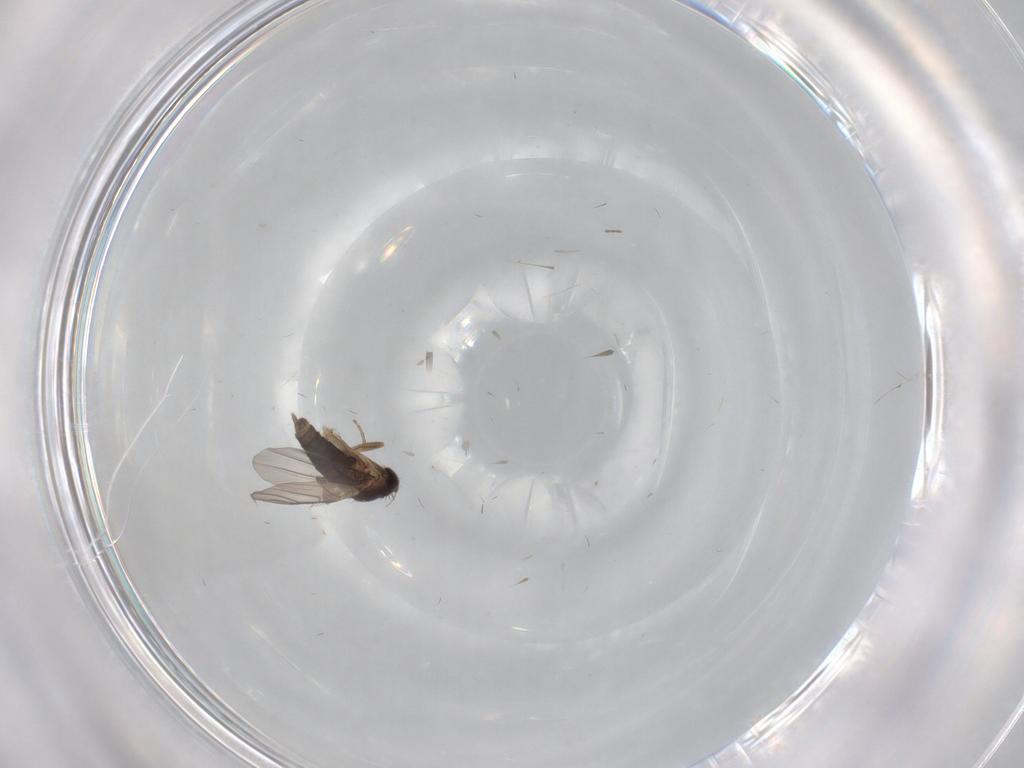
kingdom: Animalia
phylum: Arthropoda
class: Insecta
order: Diptera
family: Phoridae
